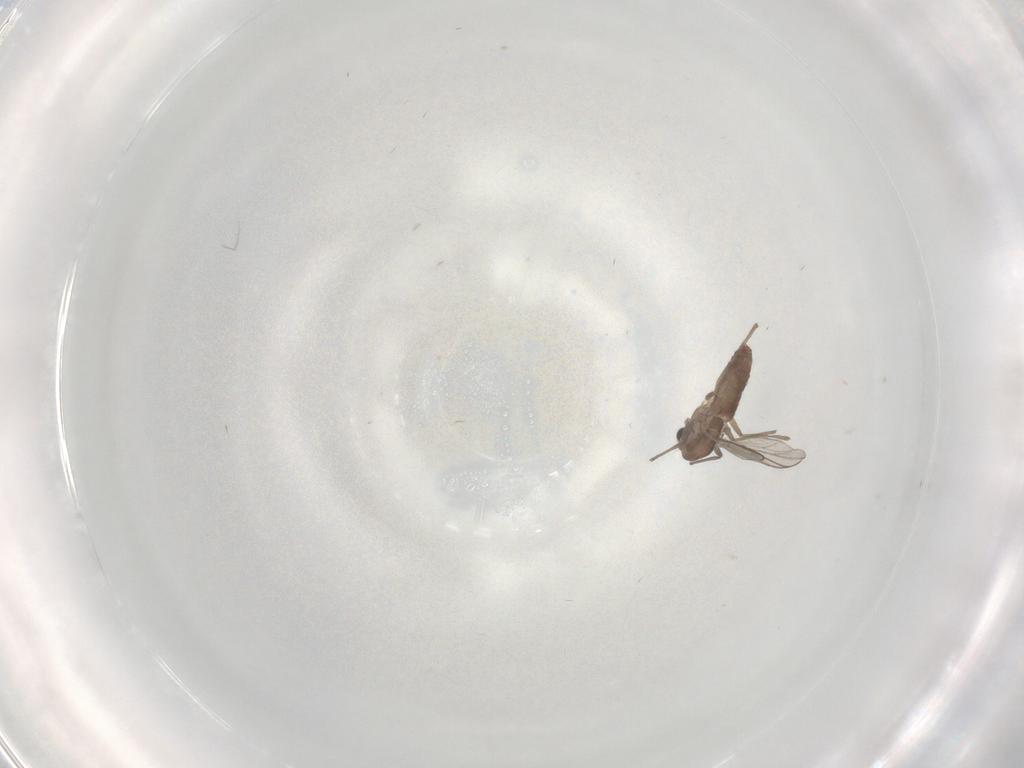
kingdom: Animalia
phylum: Arthropoda
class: Insecta
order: Diptera
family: Chironomidae
